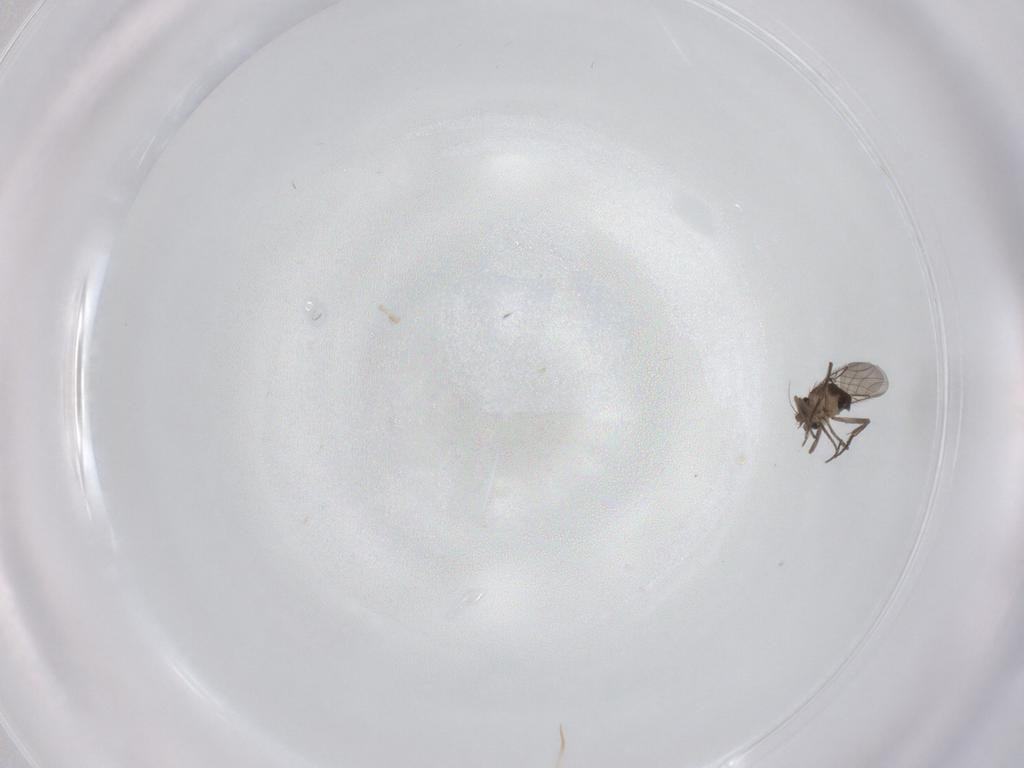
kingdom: Animalia
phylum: Arthropoda
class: Insecta
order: Diptera
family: Phoridae
